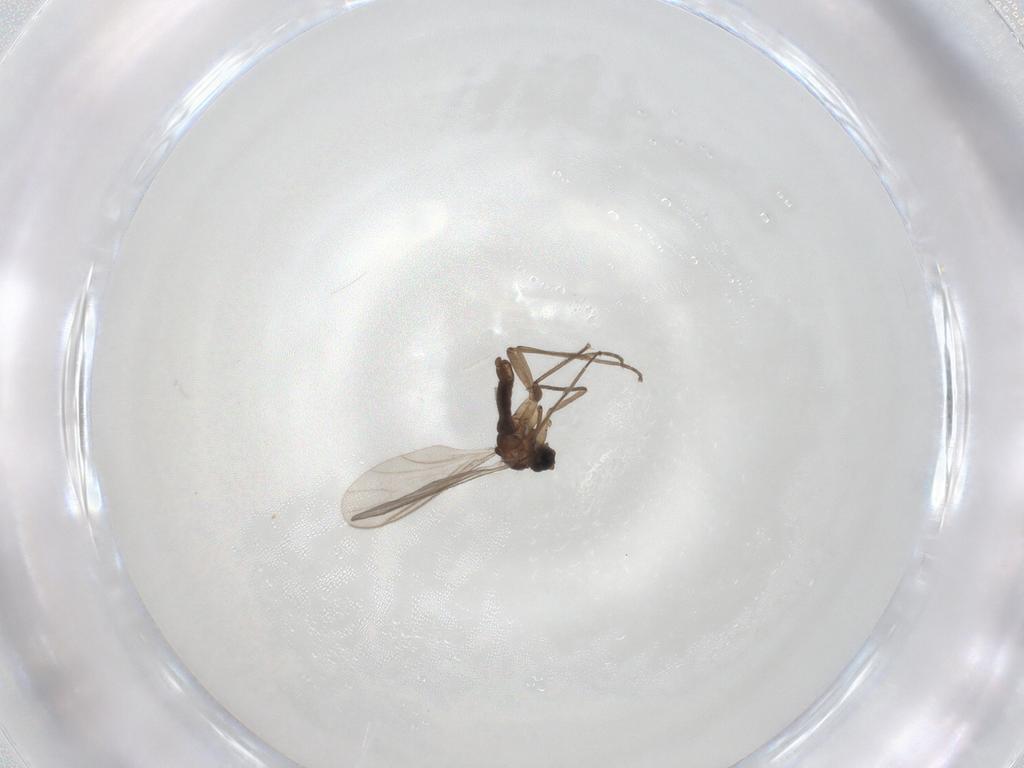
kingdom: Animalia
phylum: Arthropoda
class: Insecta
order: Diptera
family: Sciaridae
